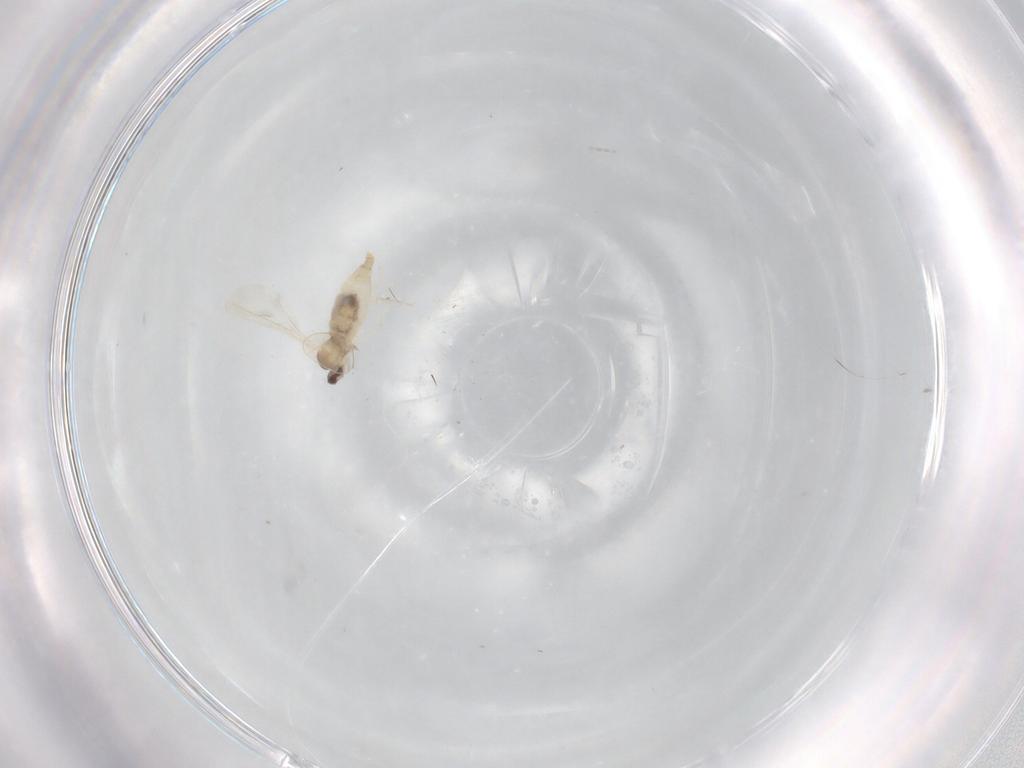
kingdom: Animalia
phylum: Arthropoda
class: Insecta
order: Diptera
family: Cecidomyiidae
